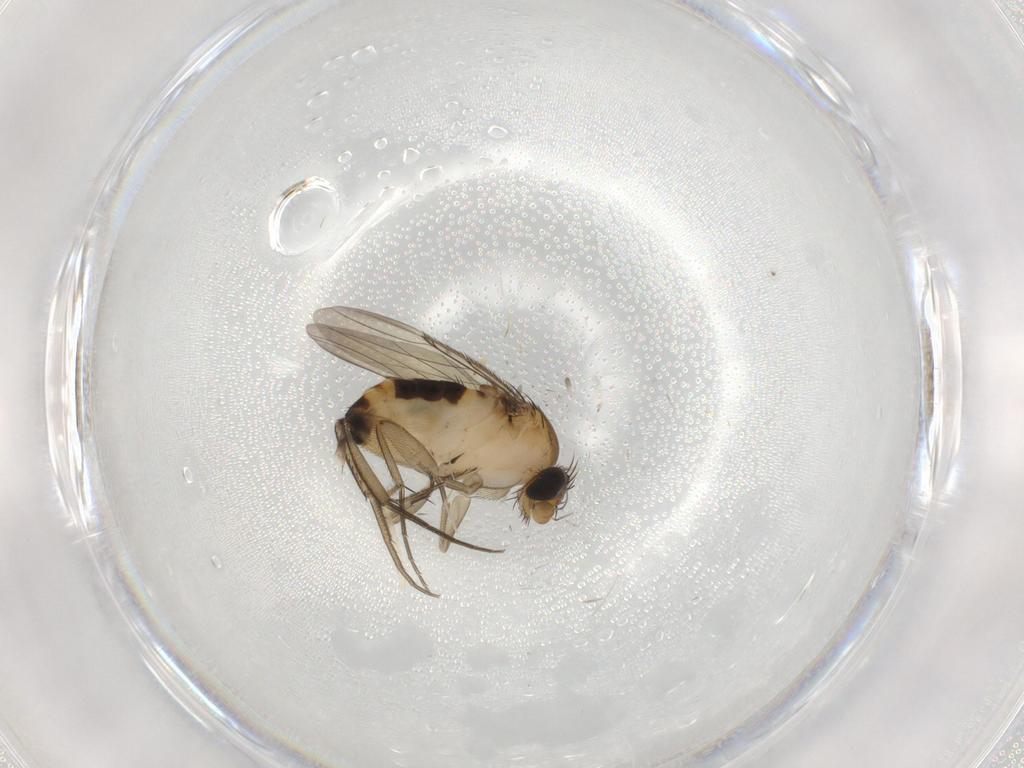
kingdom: Animalia
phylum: Arthropoda
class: Insecta
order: Diptera
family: Phoridae
